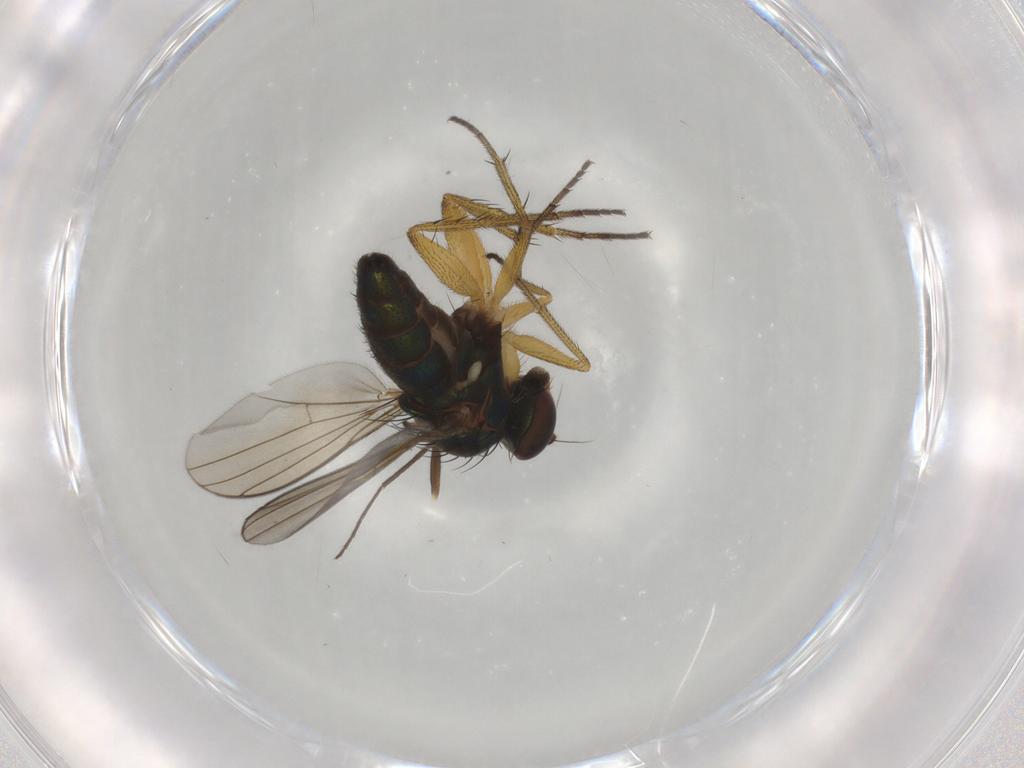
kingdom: Animalia
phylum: Arthropoda
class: Insecta
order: Diptera
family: Chironomidae
